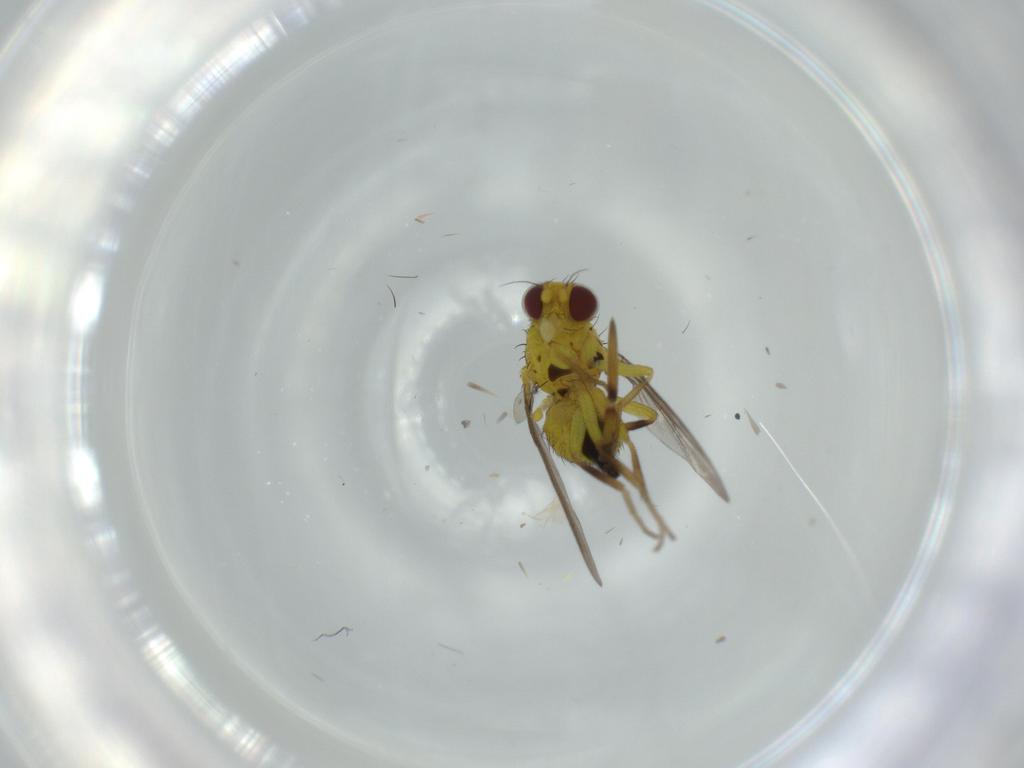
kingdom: Animalia
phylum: Arthropoda
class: Insecta
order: Diptera
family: Agromyzidae
